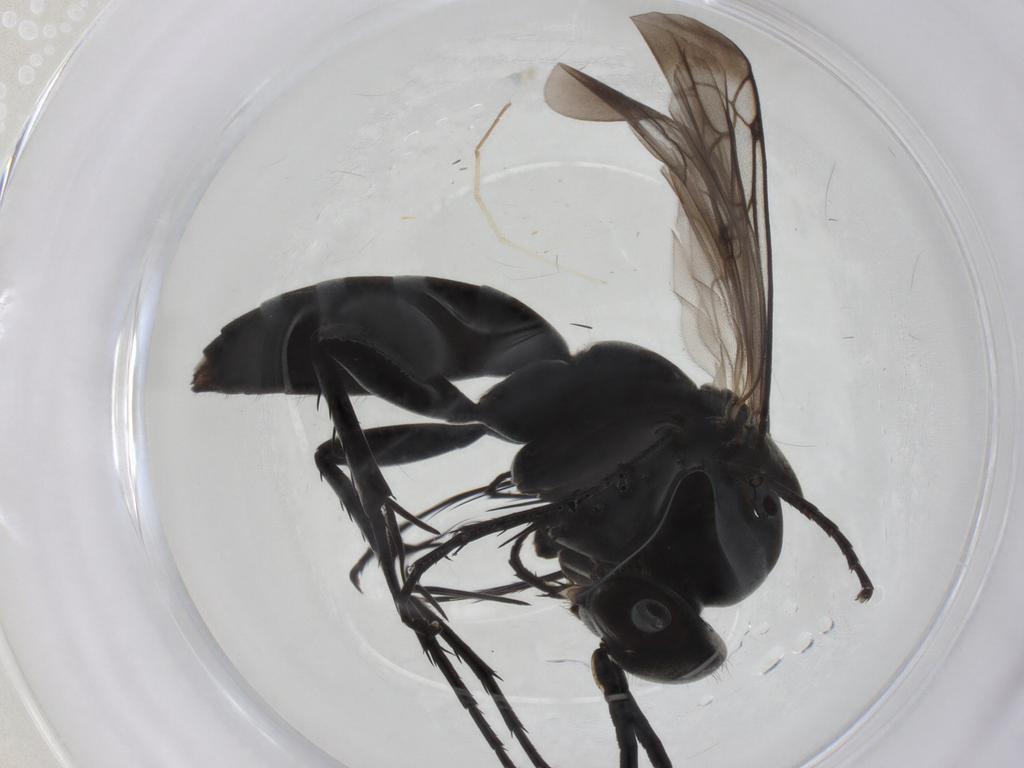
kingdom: Animalia
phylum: Arthropoda
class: Insecta
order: Hymenoptera
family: Pompilidae
